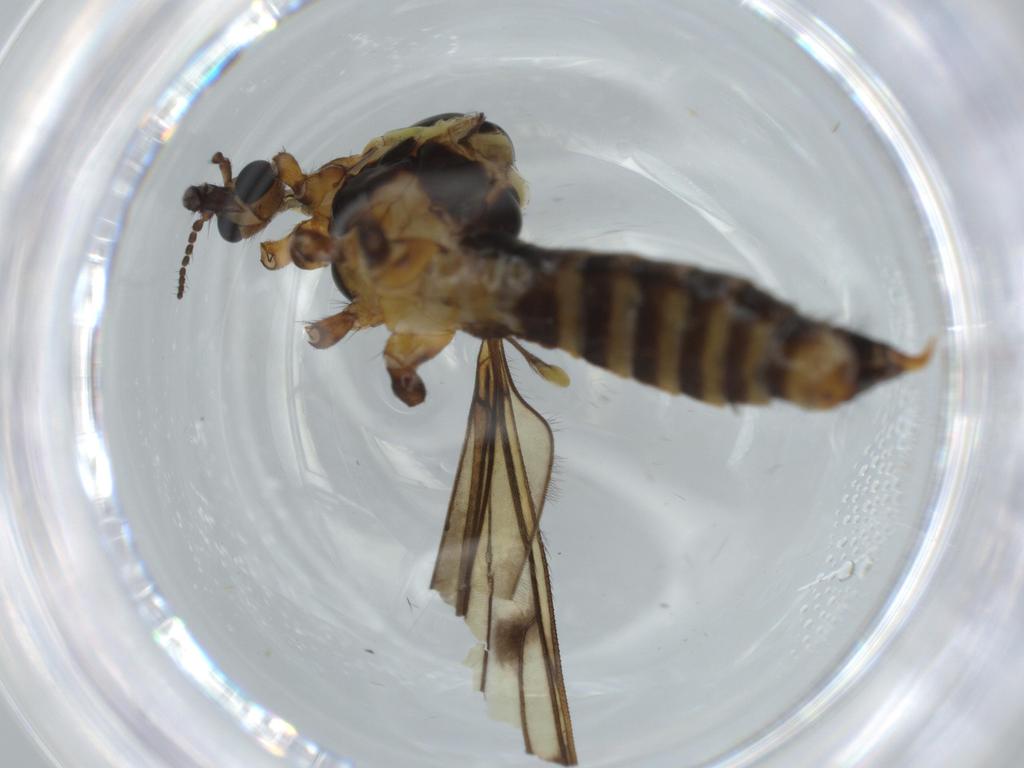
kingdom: Animalia
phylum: Arthropoda
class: Insecta
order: Diptera
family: Limoniidae
